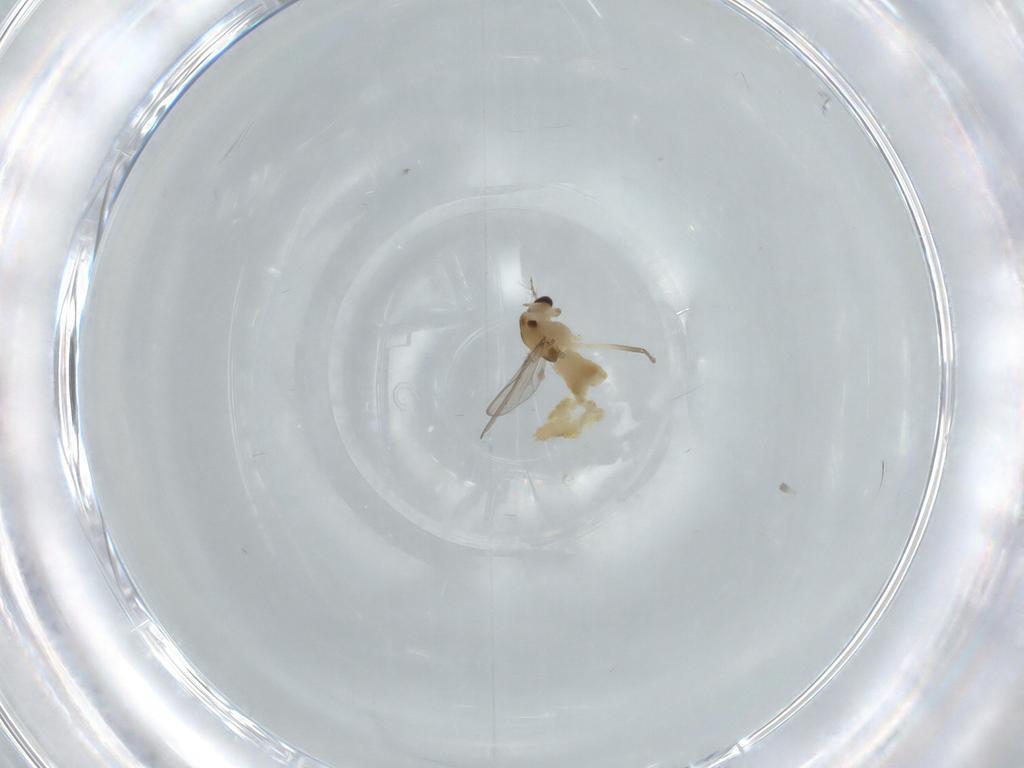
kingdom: Animalia
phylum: Arthropoda
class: Insecta
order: Diptera
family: Chironomidae
